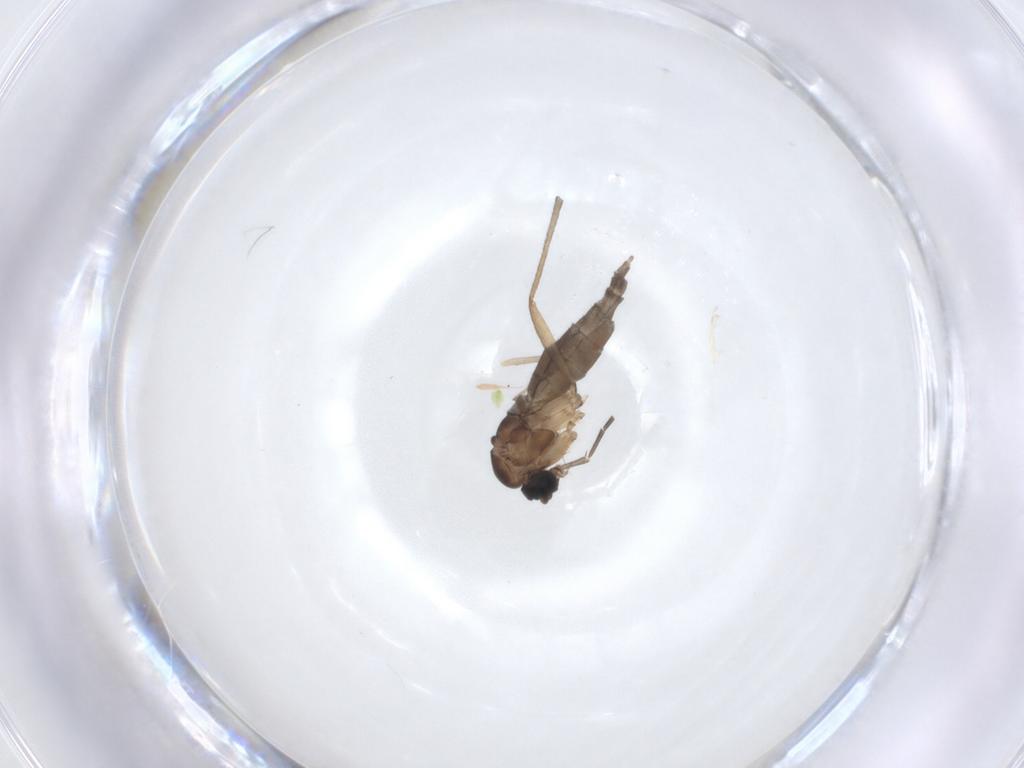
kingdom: Animalia
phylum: Arthropoda
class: Insecta
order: Diptera
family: Sciaridae
